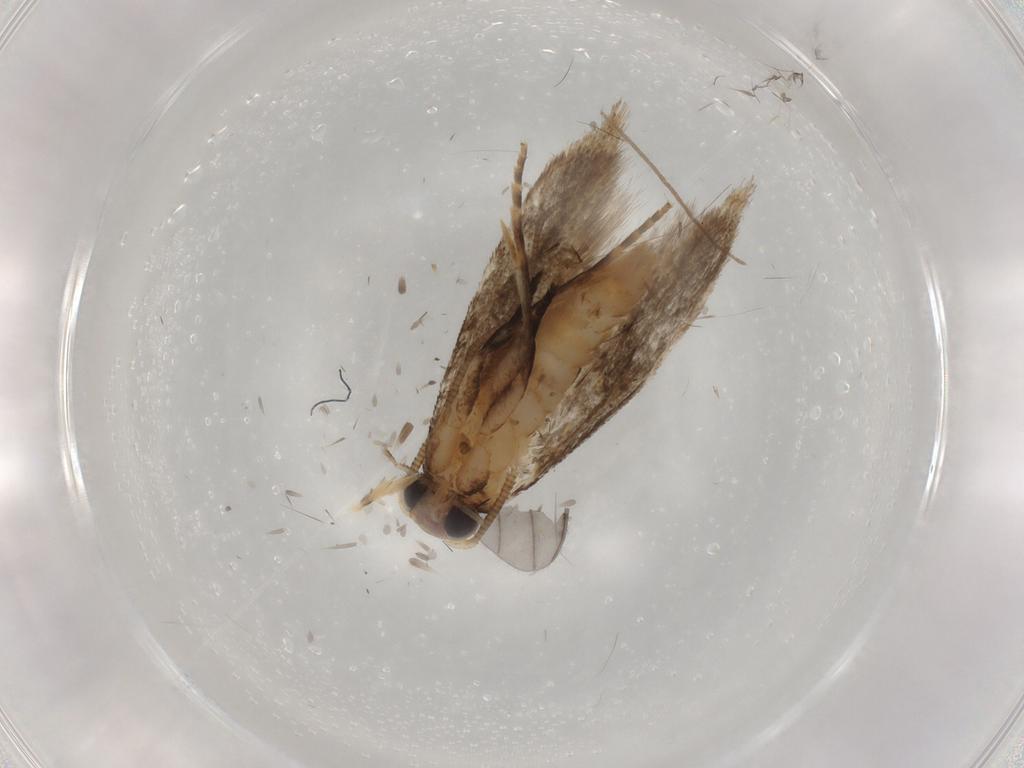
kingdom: Animalia
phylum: Arthropoda
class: Insecta
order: Lepidoptera
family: Tineidae
